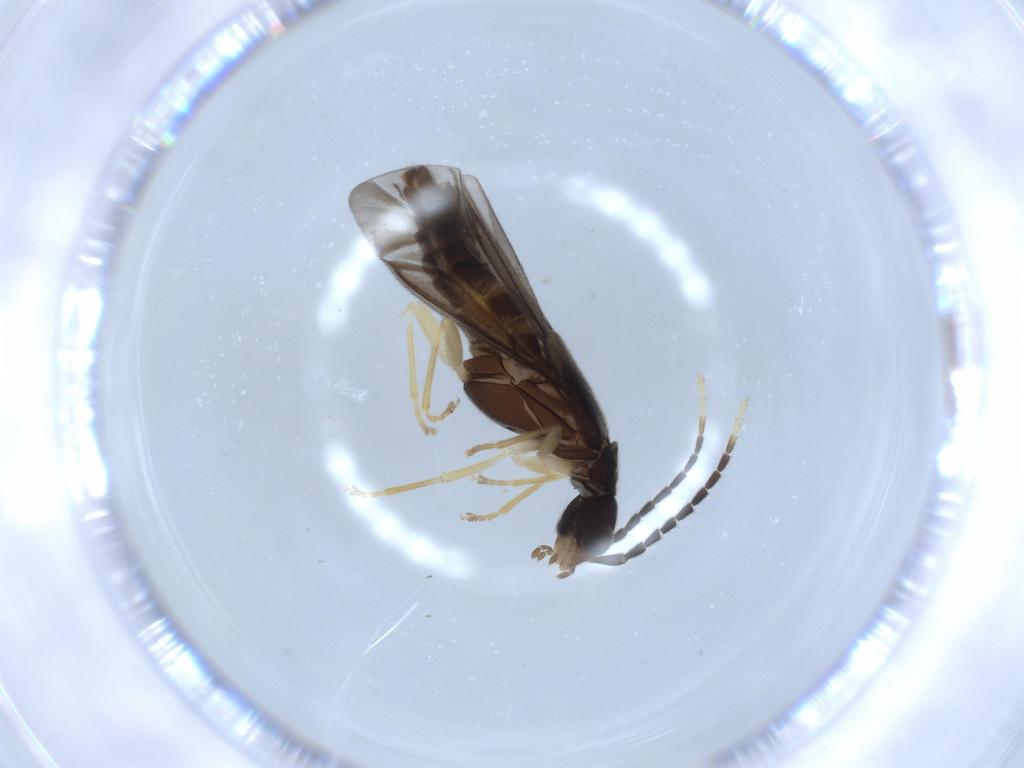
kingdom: Animalia
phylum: Arthropoda
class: Insecta
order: Coleoptera
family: Cantharidae
